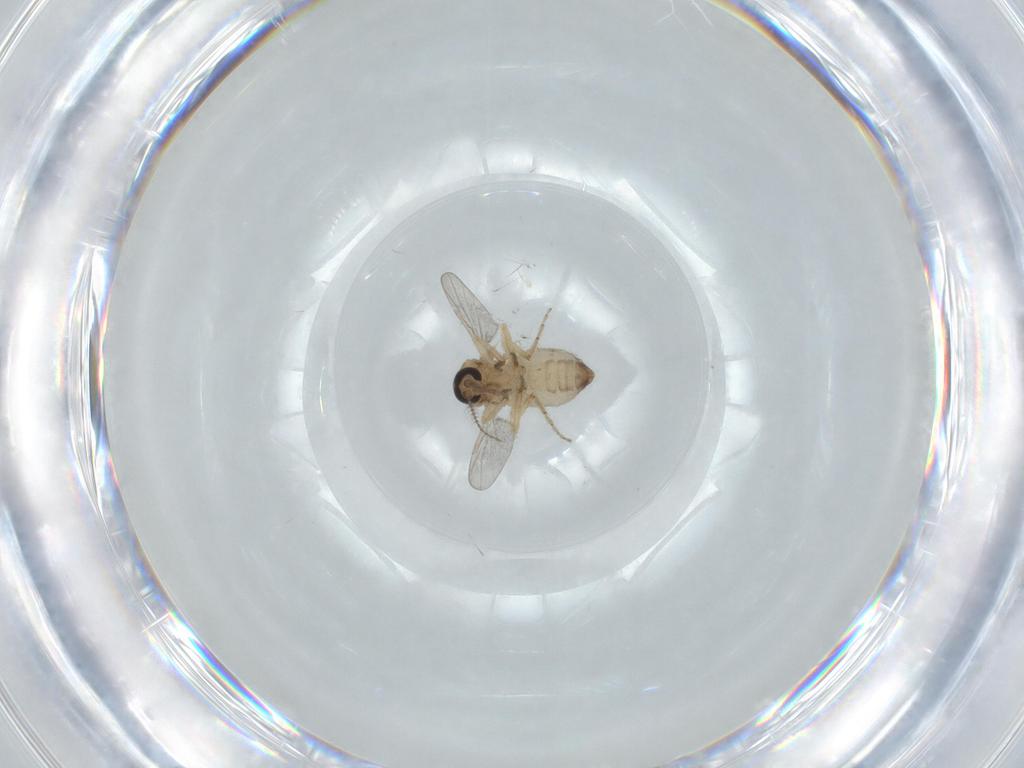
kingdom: Animalia
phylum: Arthropoda
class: Insecta
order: Diptera
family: Ceratopogonidae
